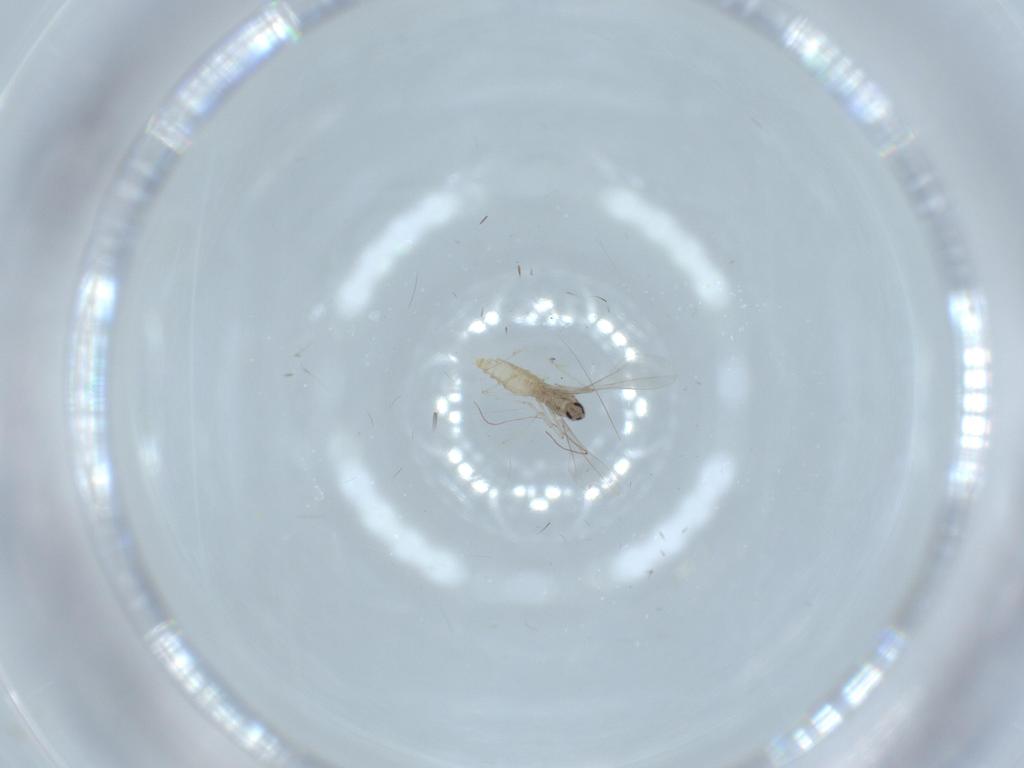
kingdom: Animalia
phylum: Arthropoda
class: Insecta
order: Diptera
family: Cecidomyiidae
